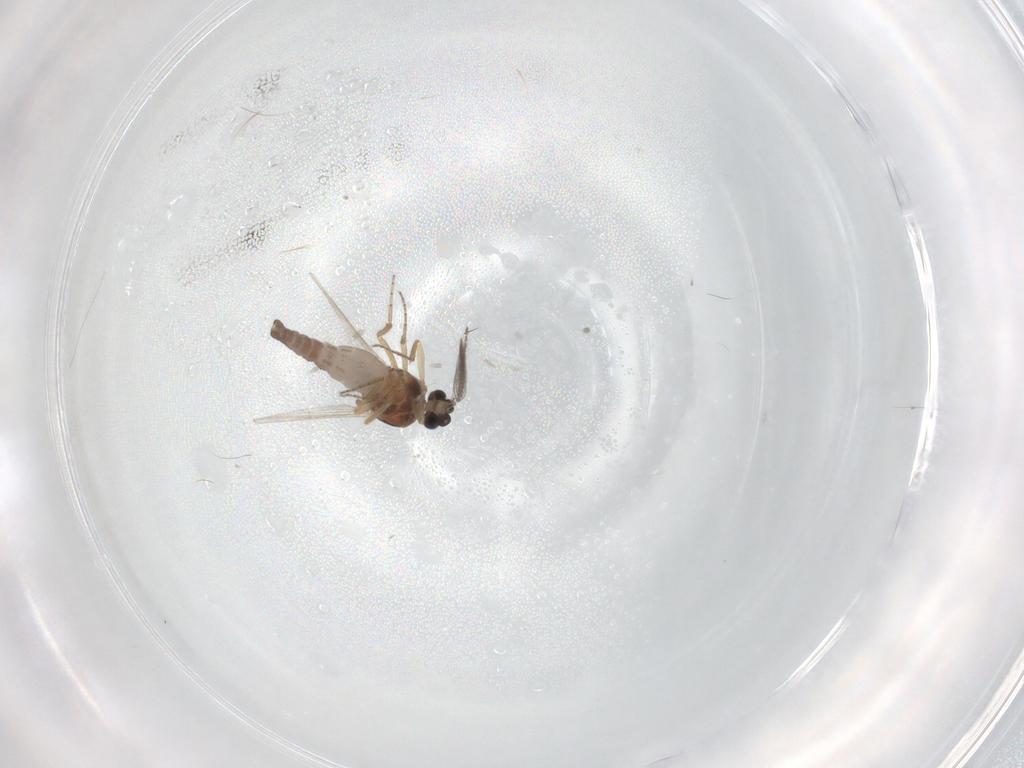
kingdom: Animalia
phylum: Arthropoda
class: Insecta
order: Diptera
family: Ceratopogonidae
